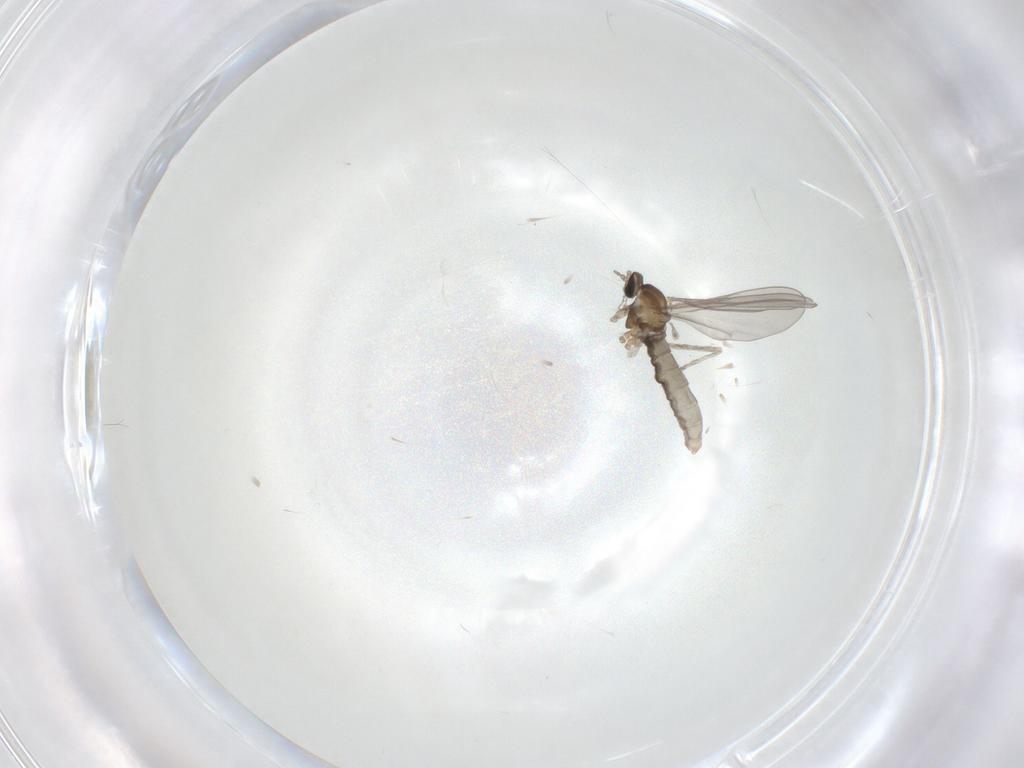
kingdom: Animalia
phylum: Arthropoda
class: Insecta
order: Diptera
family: Cecidomyiidae
